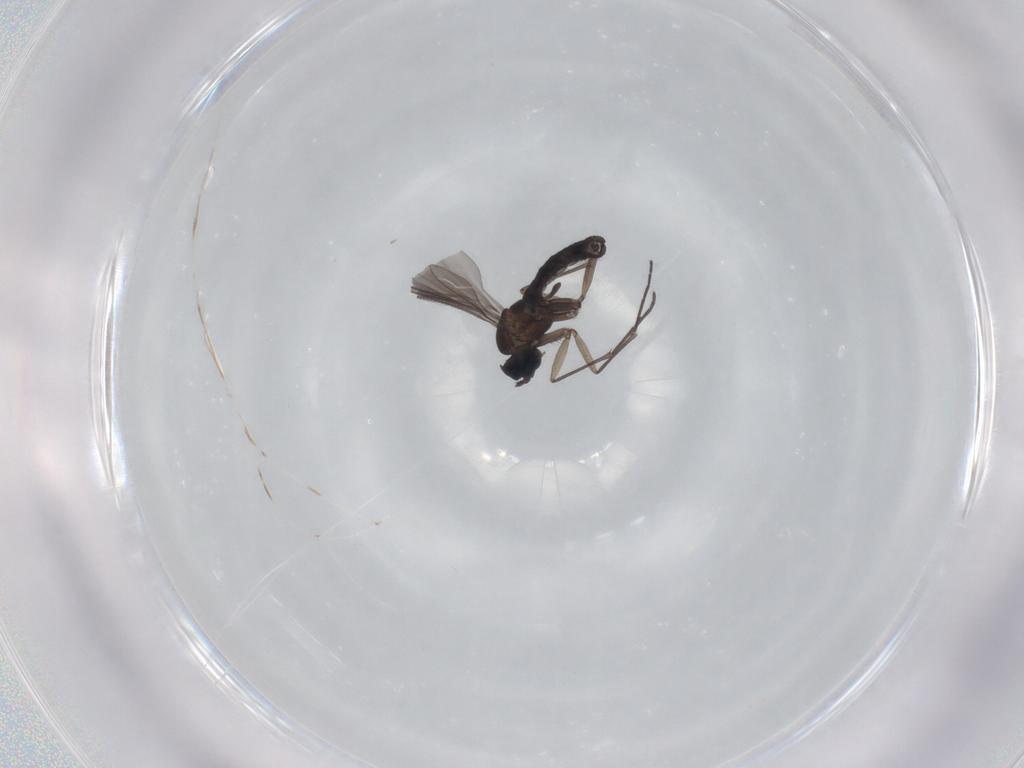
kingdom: Animalia
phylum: Arthropoda
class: Insecta
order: Diptera
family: Sciaridae
